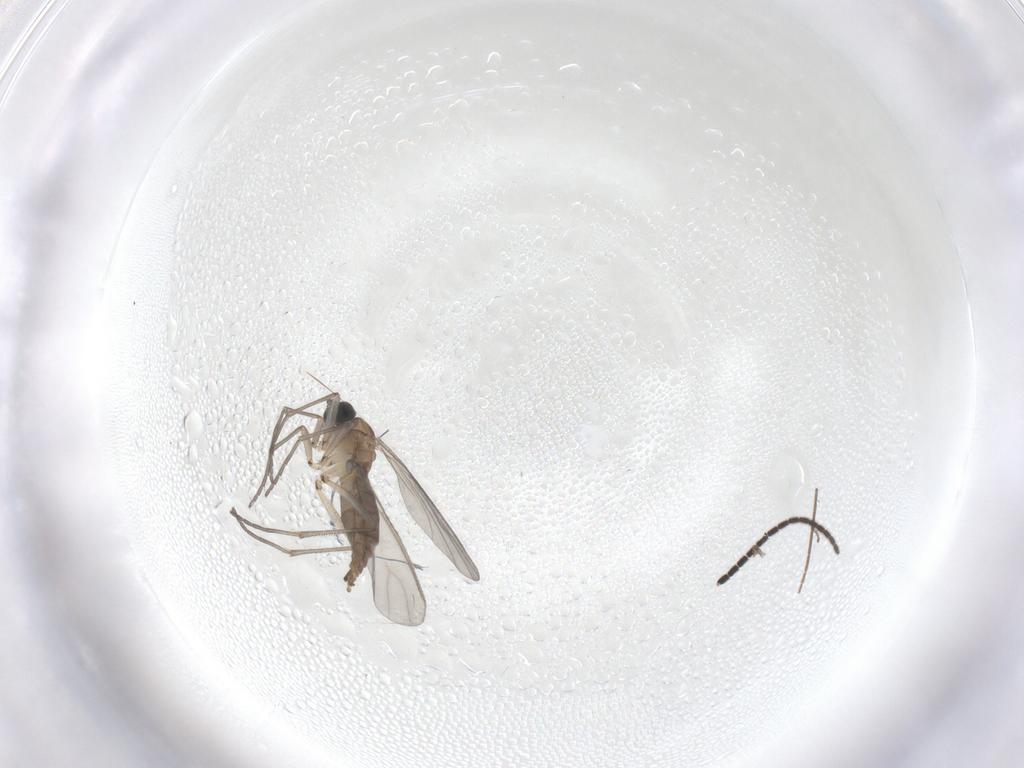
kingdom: Animalia
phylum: Arthropoda
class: Insecta
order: Diptera
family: Sciaridae
